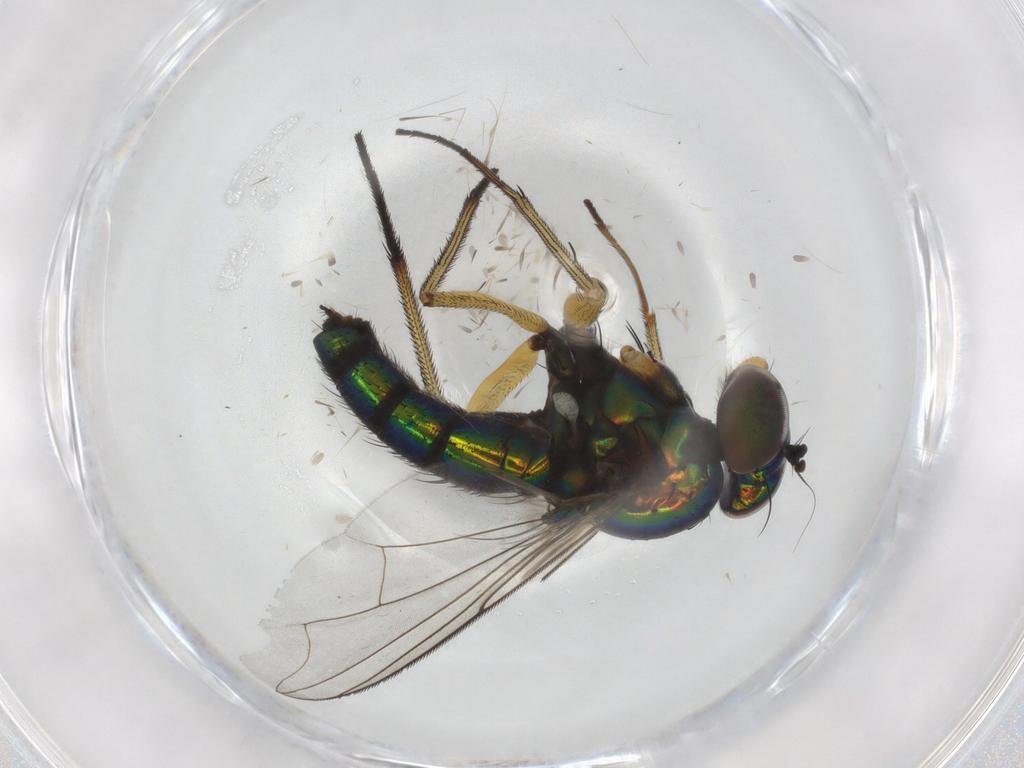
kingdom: Animalia
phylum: Arthropoda
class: Insecta
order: Diptera
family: Dolichopodidae
